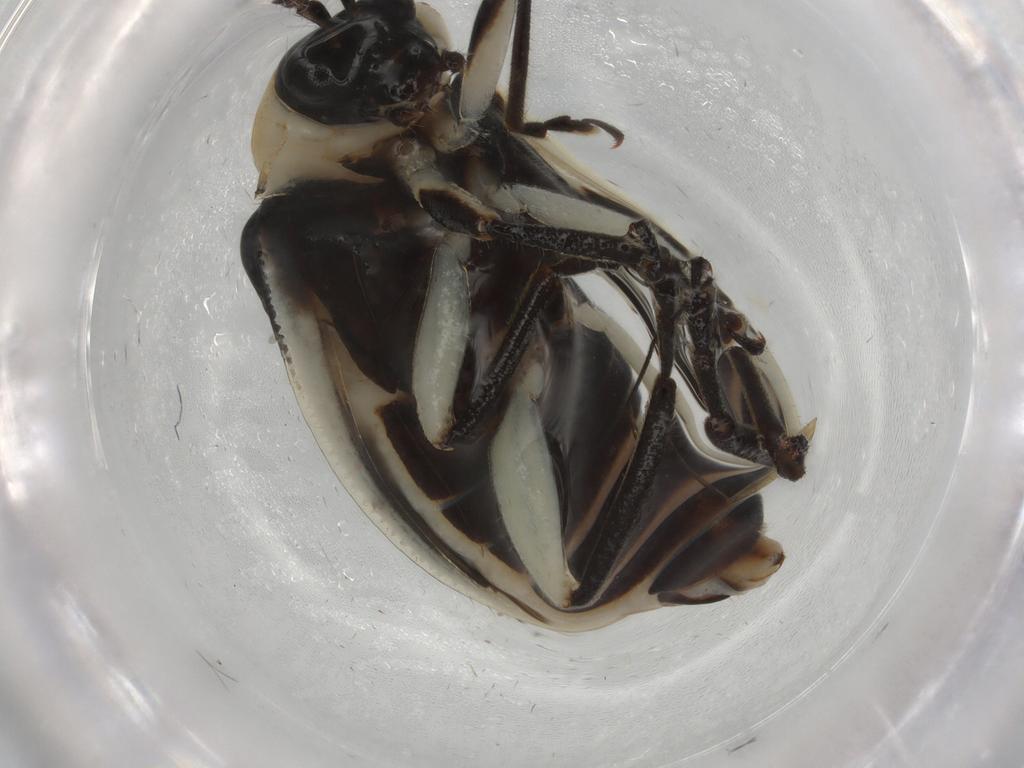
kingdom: Animalia
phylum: Arthropoda
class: Insecta
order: Coleoptera
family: Chrysomelidae
